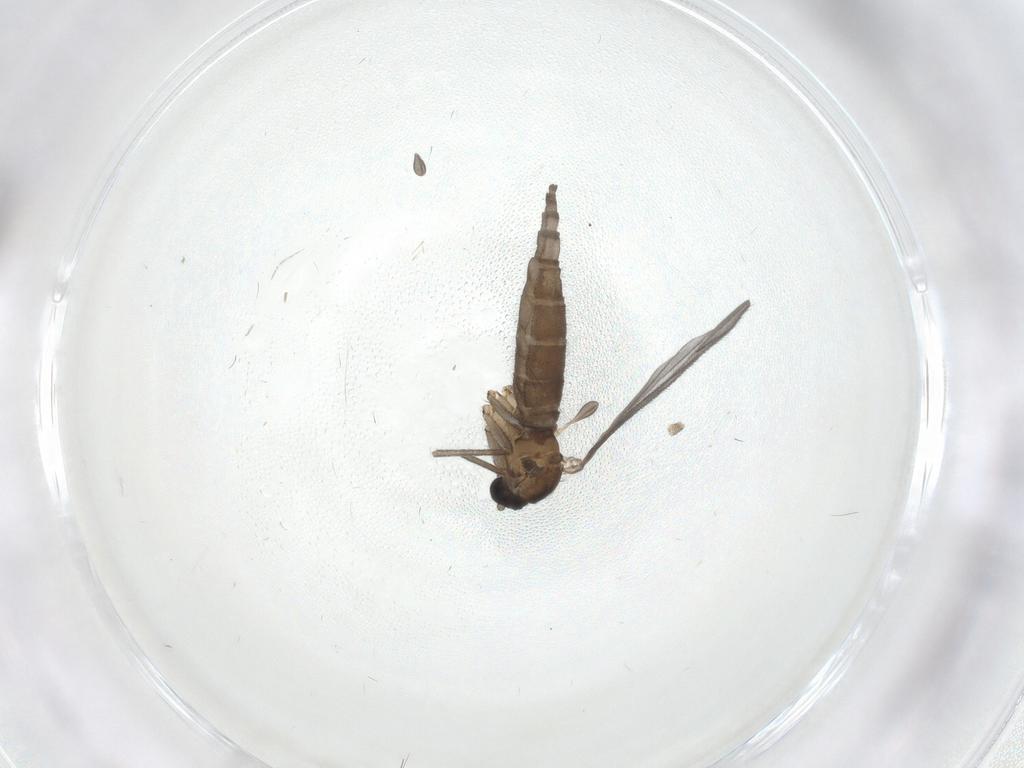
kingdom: Animalia
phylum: Arthropoda
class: Insecta
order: Diptera
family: Sciaridae
